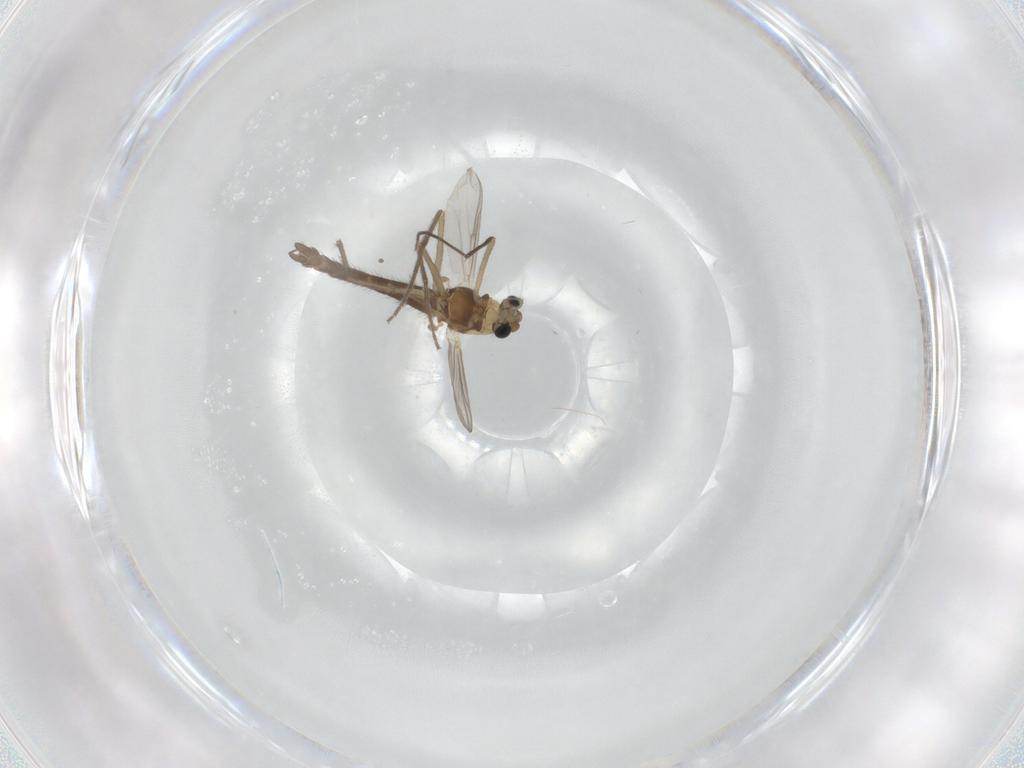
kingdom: Animalia
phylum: Arthropoda
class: Insecta
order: Diptera
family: Chironomidae
